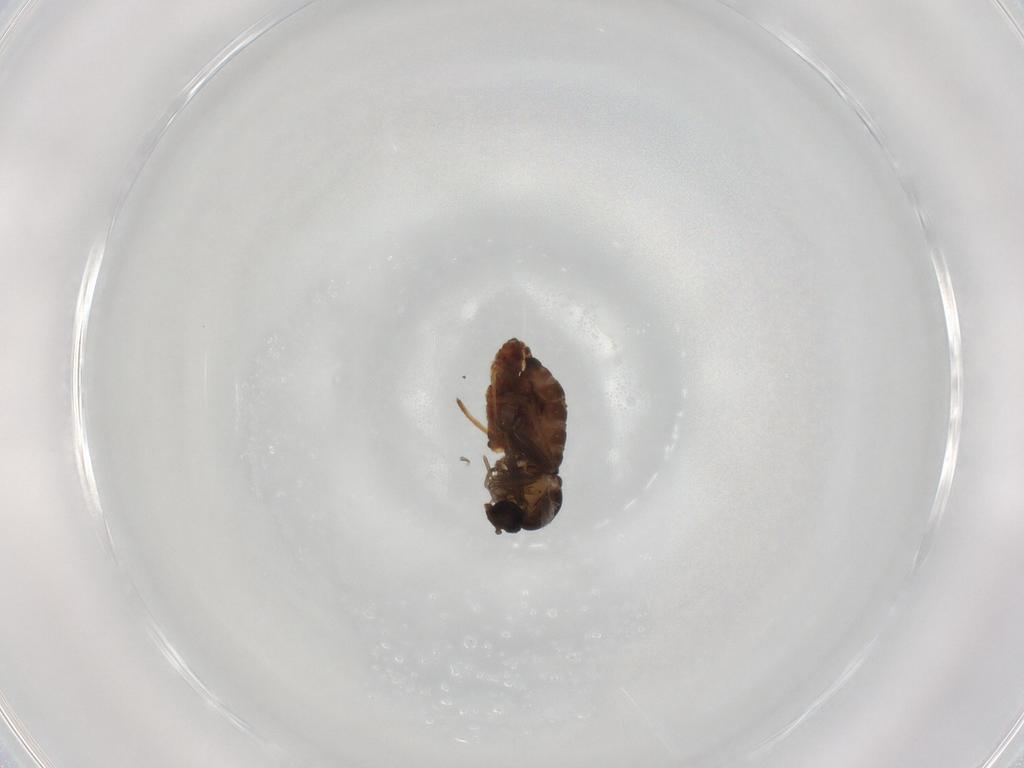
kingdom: Animalia
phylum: Arthropoda
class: Insecta
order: Diptera
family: Cecidomyiidae
